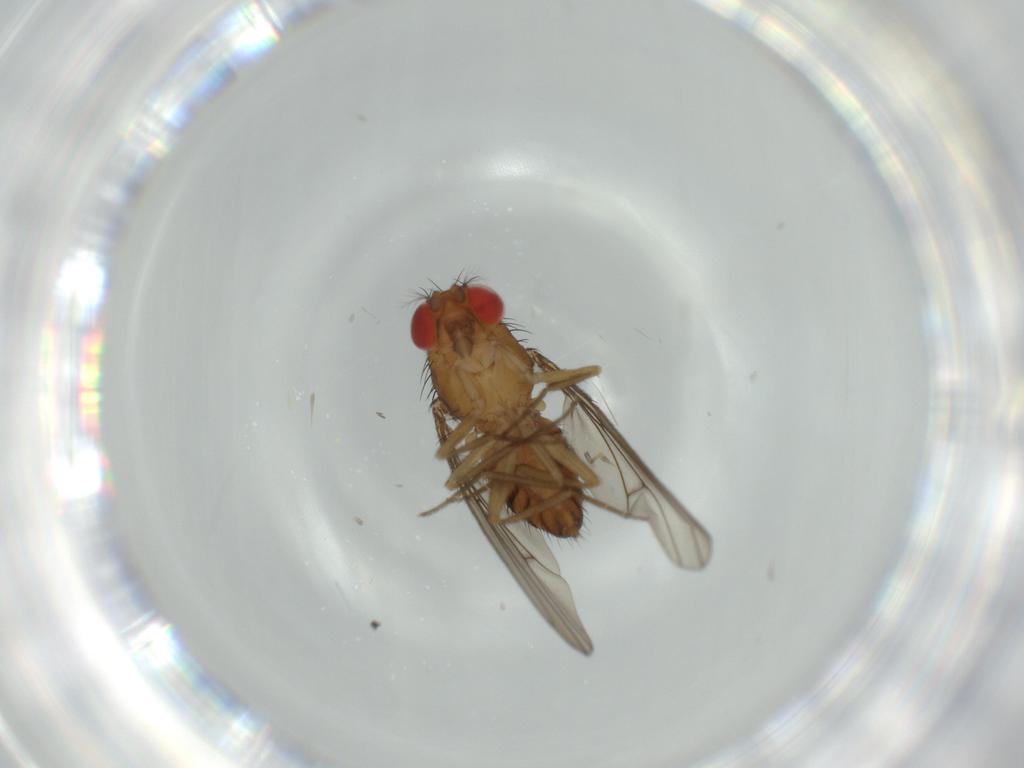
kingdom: Animalia
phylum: Arthropoda
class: Insecta
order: Diptera
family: Drosophilidae
